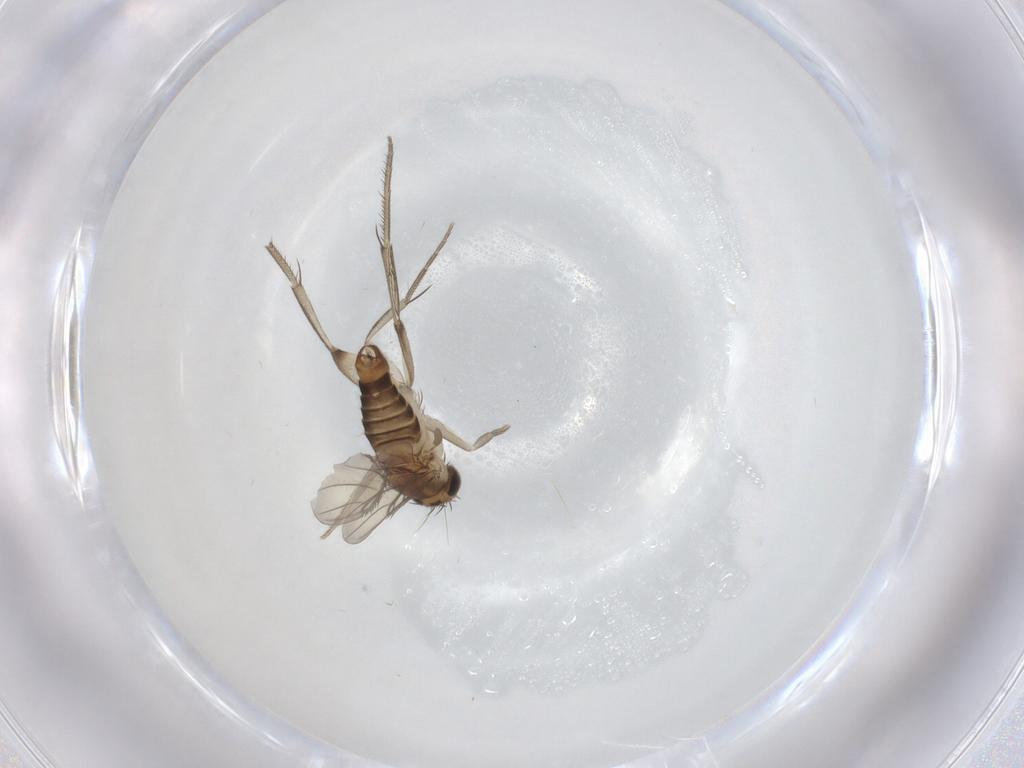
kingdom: Animalia
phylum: Arthropoda
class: Insecta
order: Diptera
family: Phoridae
